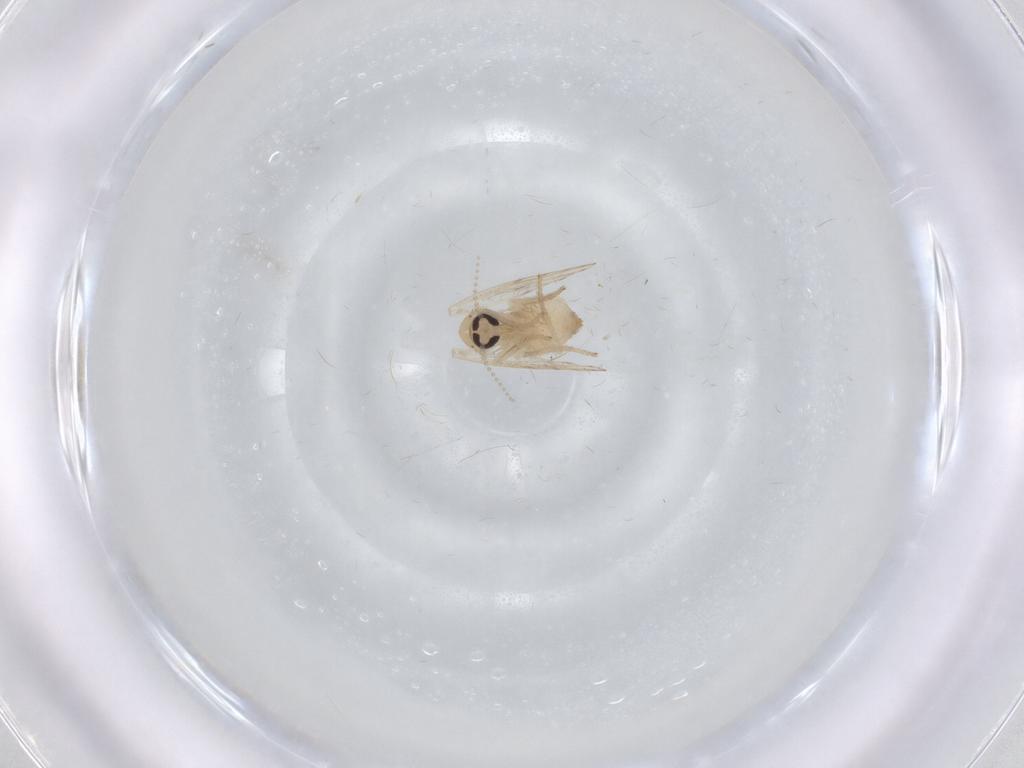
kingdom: Animalia
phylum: Arthropoda
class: Insecta
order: Diptera
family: Psychodidae
